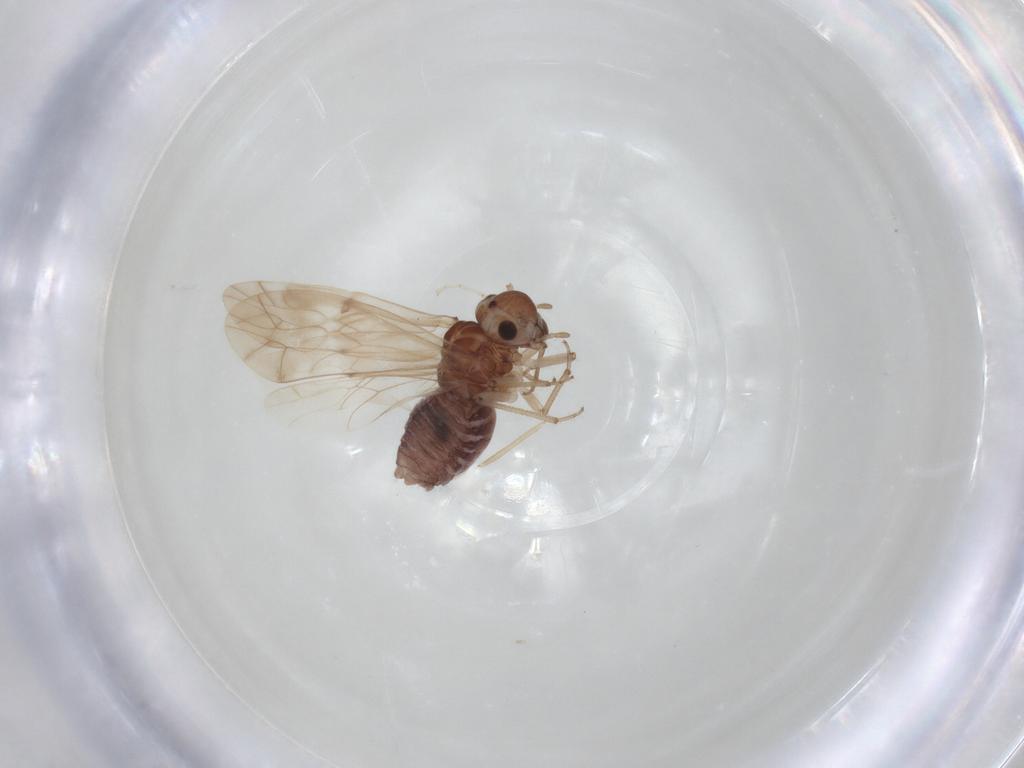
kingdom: Animalia
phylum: Arthropoda
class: Insecta
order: Psocodea
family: Peripsocidae
